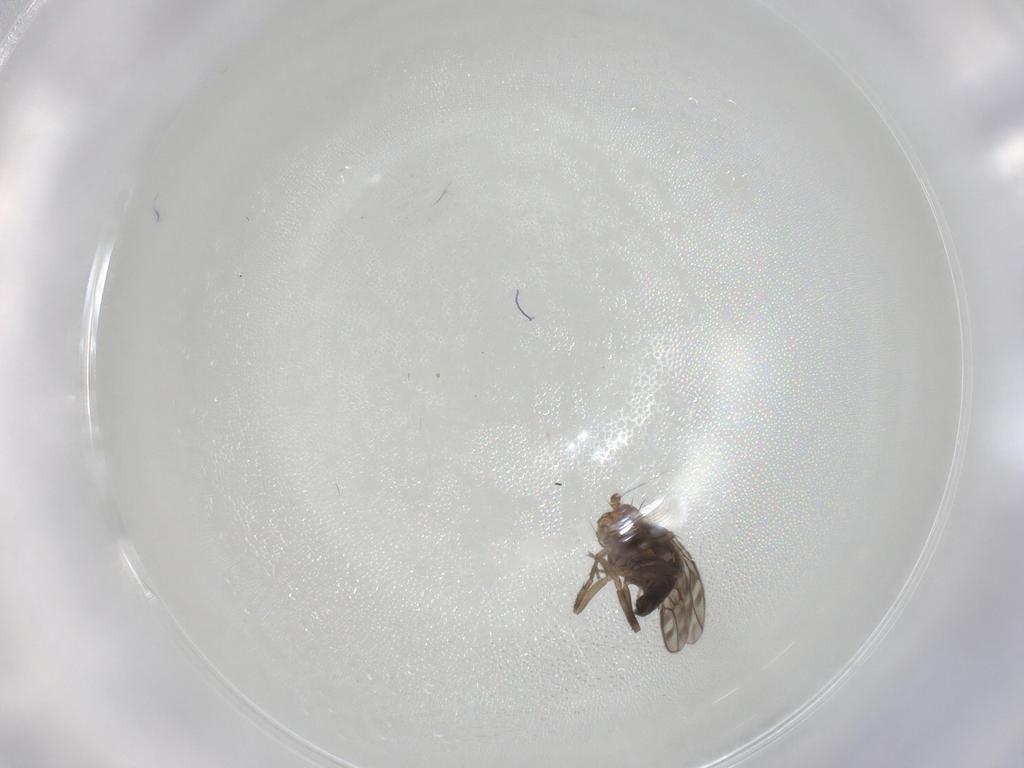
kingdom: Animalia
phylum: Arthropoda
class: Insecta
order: Diptera
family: Sphaeroceridae
